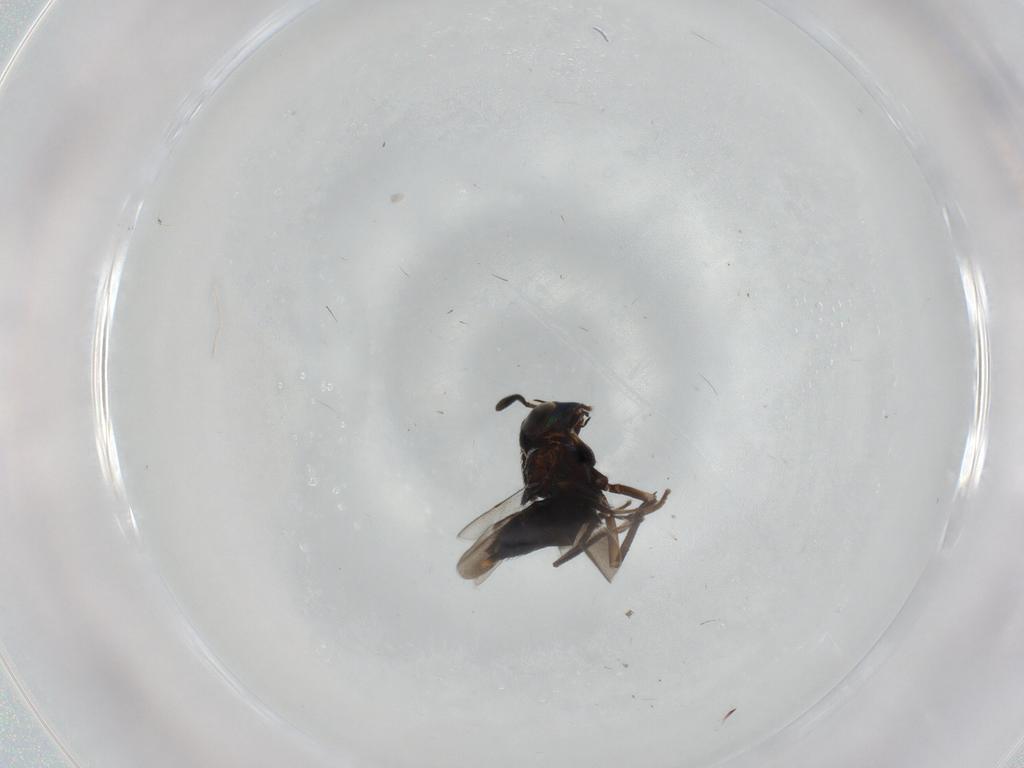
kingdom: Animalia
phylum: Arthropoda
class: Insecta
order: Hymenoptera
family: Encyrtidae
